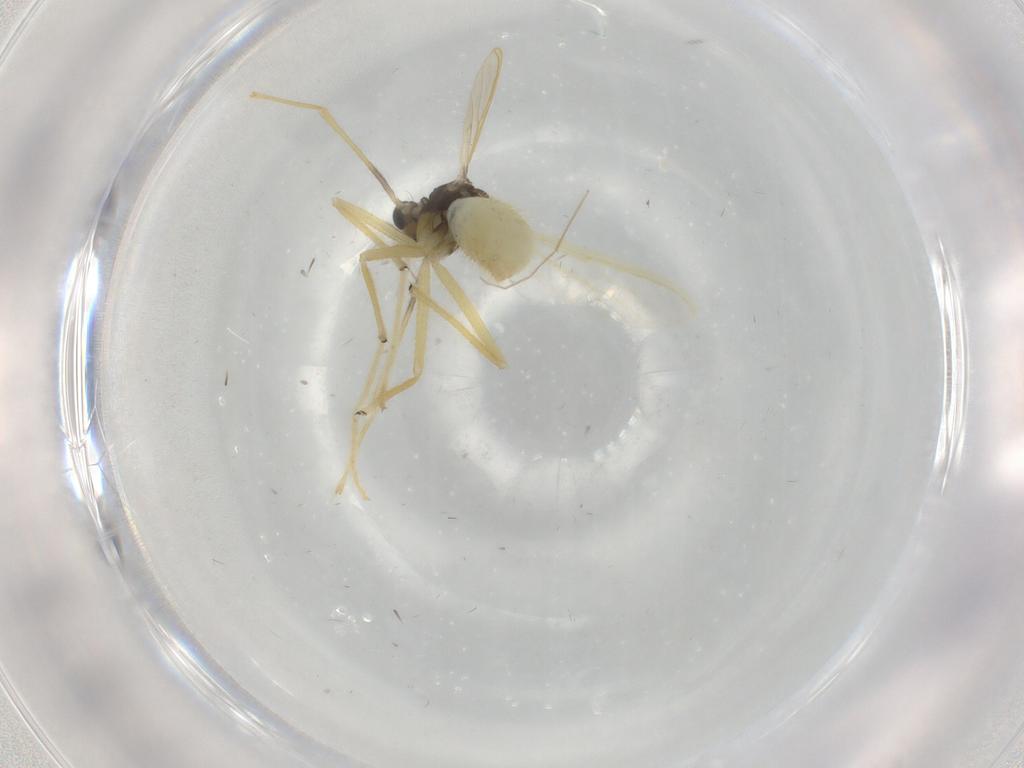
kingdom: Animalia
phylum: Arthropoda
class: Insecta
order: Diptera
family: Chironomidae
